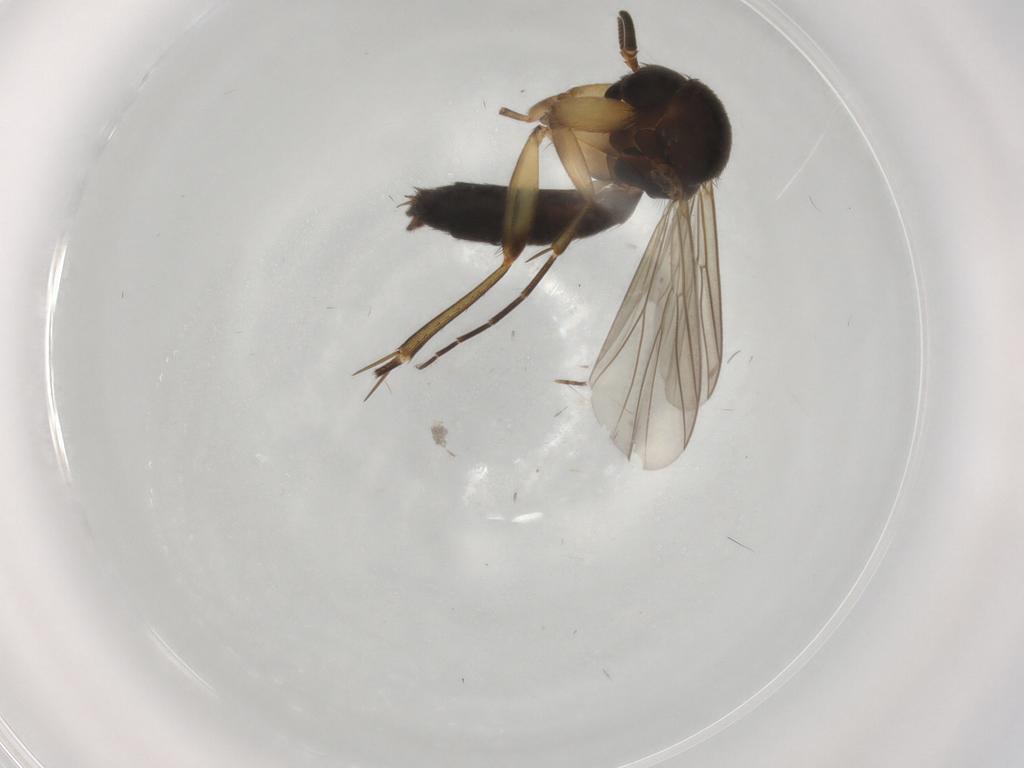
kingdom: Animalia
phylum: Arthropoda
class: Insecta
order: Diptera
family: Mycetophilidae
